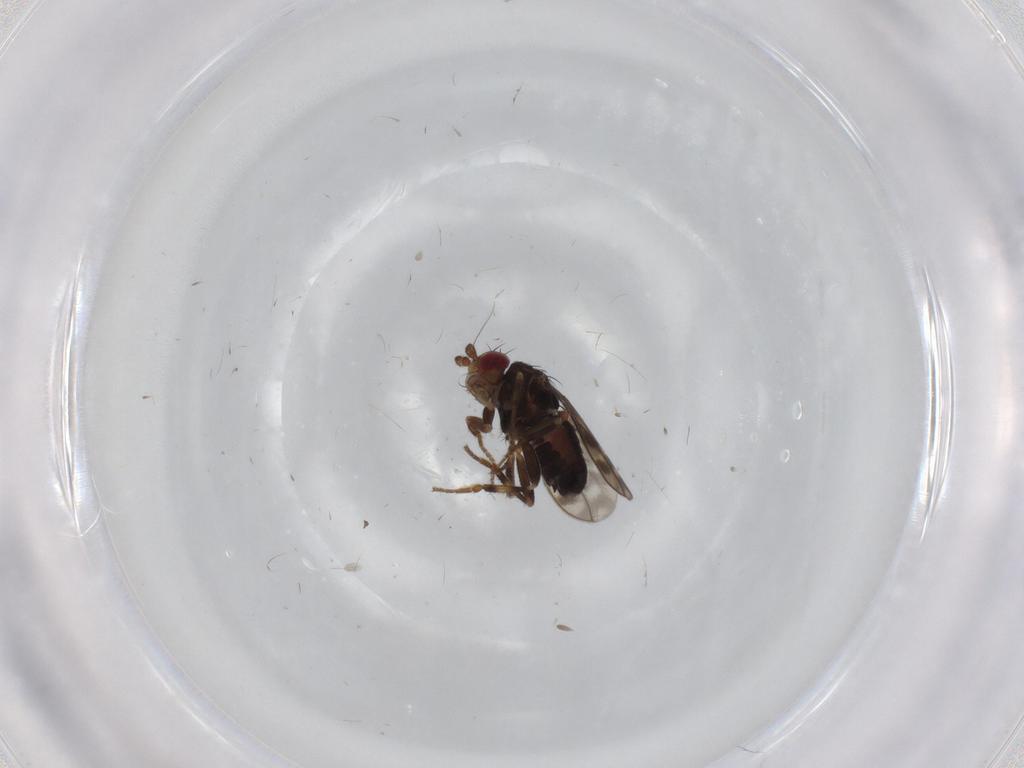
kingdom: Animalia
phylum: Arthropoda
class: Insecta
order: Diptera
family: Sphaeroceridae
